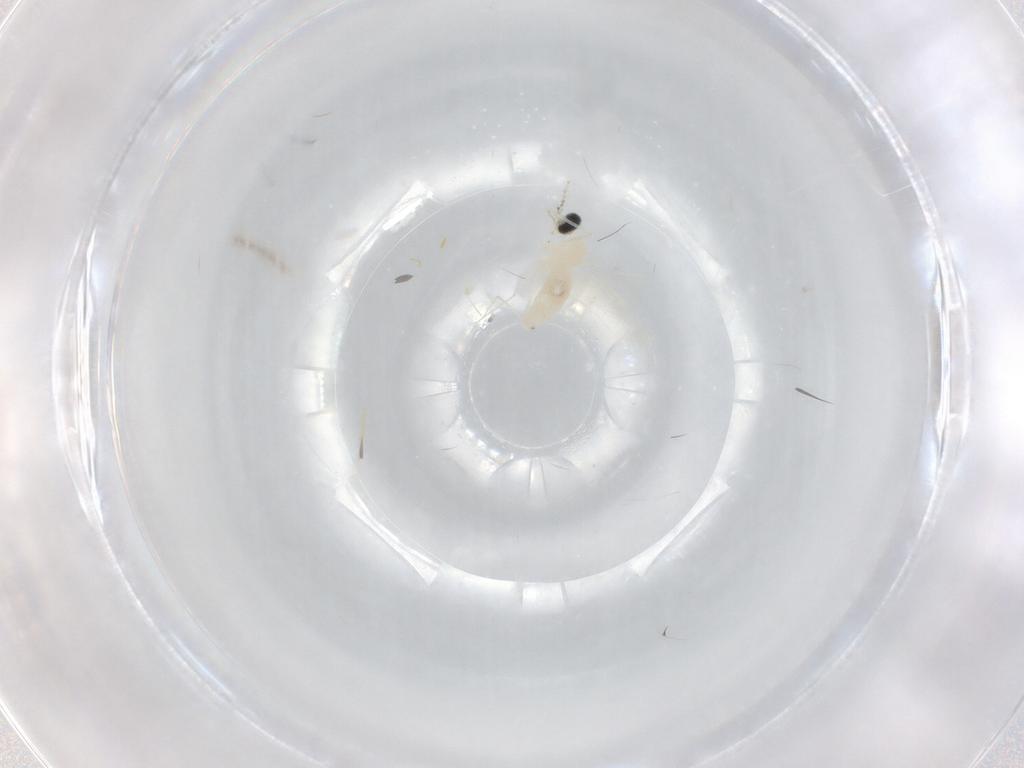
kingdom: Animalia
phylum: Arthropoda
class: Insecta
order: Diptera
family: Cecidomyiidae
